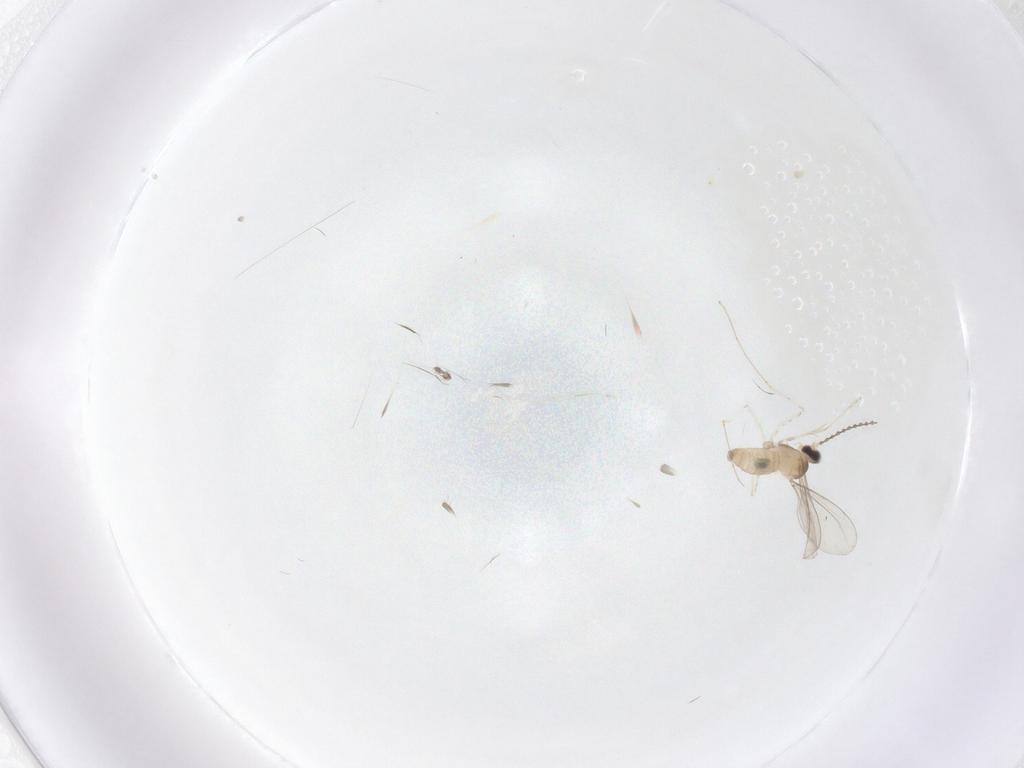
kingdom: Animalia
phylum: Arthropoda
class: Insecta
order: Diptera
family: Cecidomyiidae
